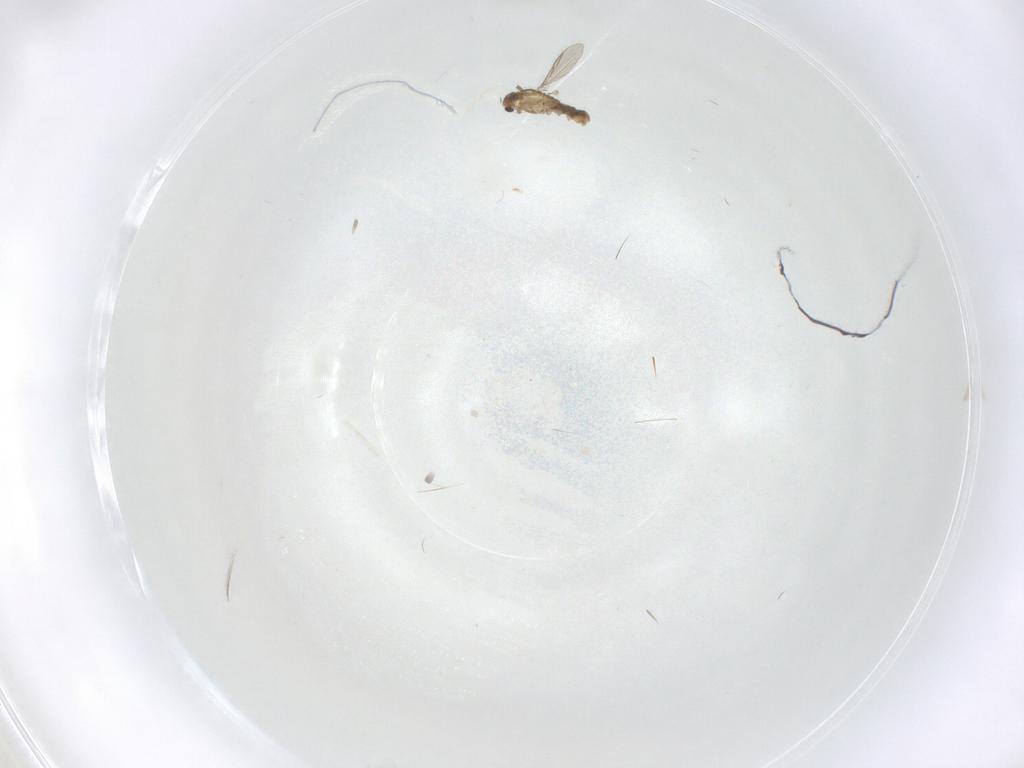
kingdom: Animalia
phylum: Arthropoda
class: Insecta
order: Diptera
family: Chironomidae
